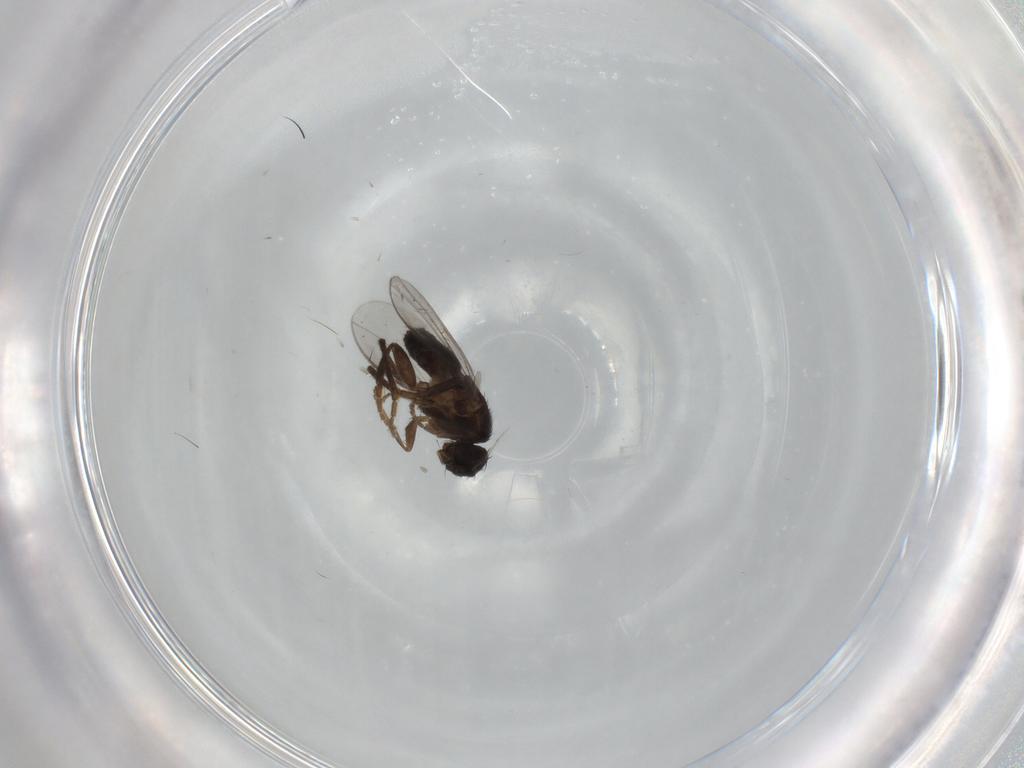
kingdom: Animalia
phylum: Arthropoda
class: Insecta
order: Diptera
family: Sphaeroceridae
